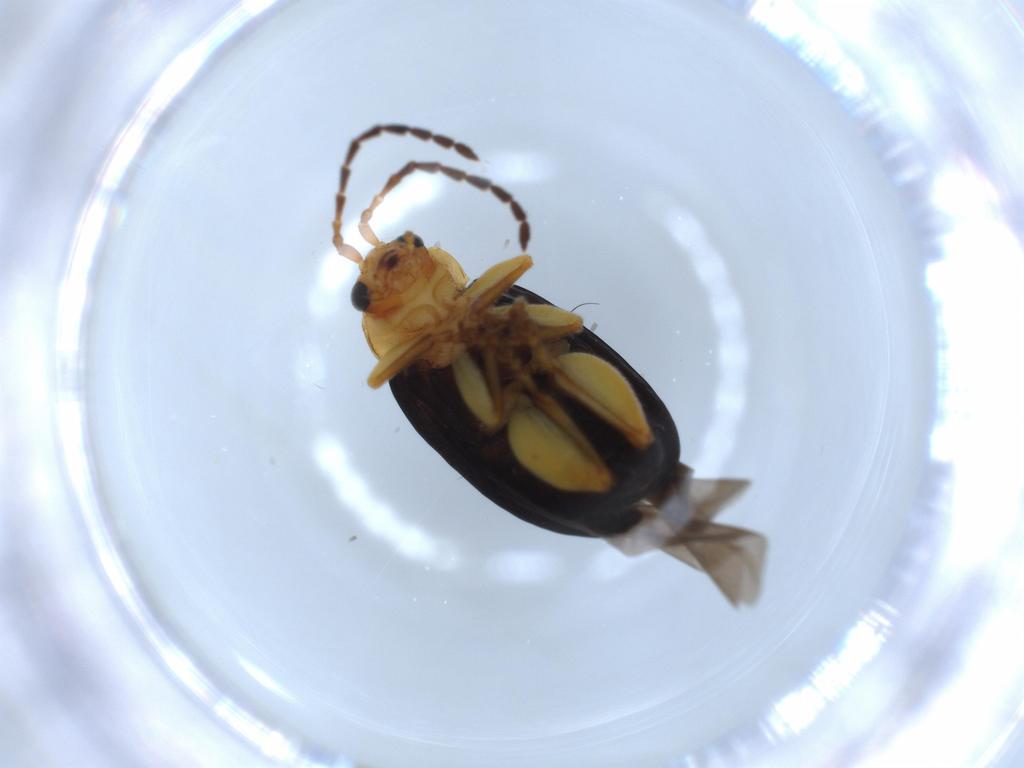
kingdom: Animalia
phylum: Arthropoda
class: Insecta
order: Coleoptera
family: Chrysomelidae
